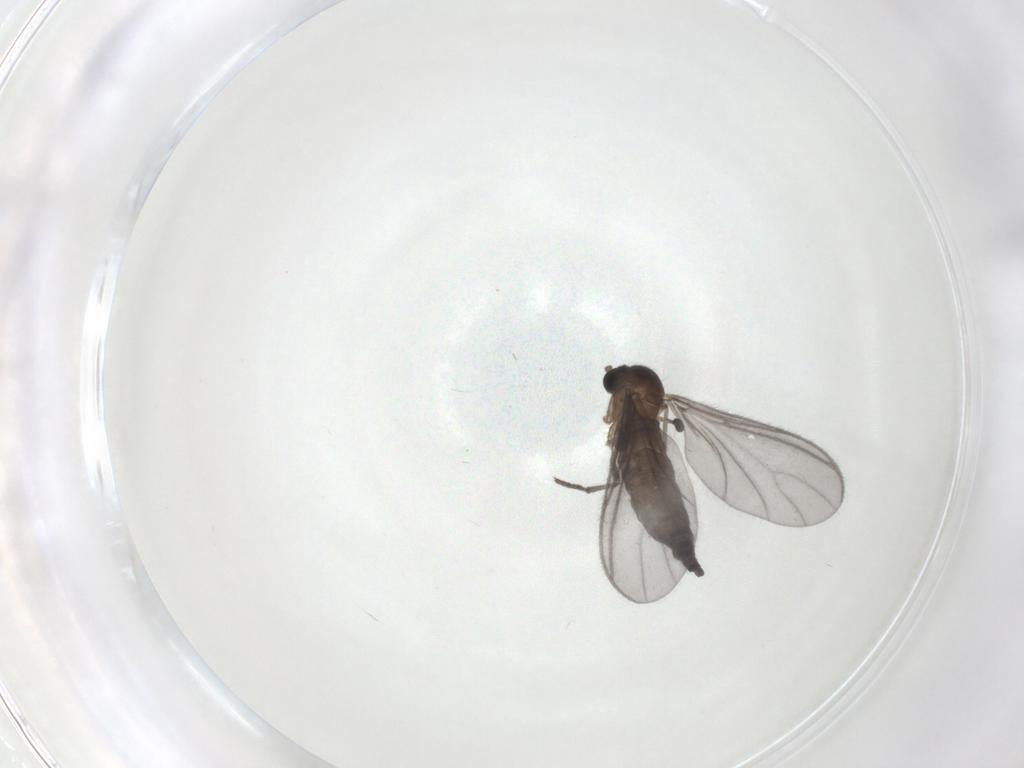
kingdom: Animalia
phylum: Arthropoda
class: Insecta
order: Diptera
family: Sciaridae
